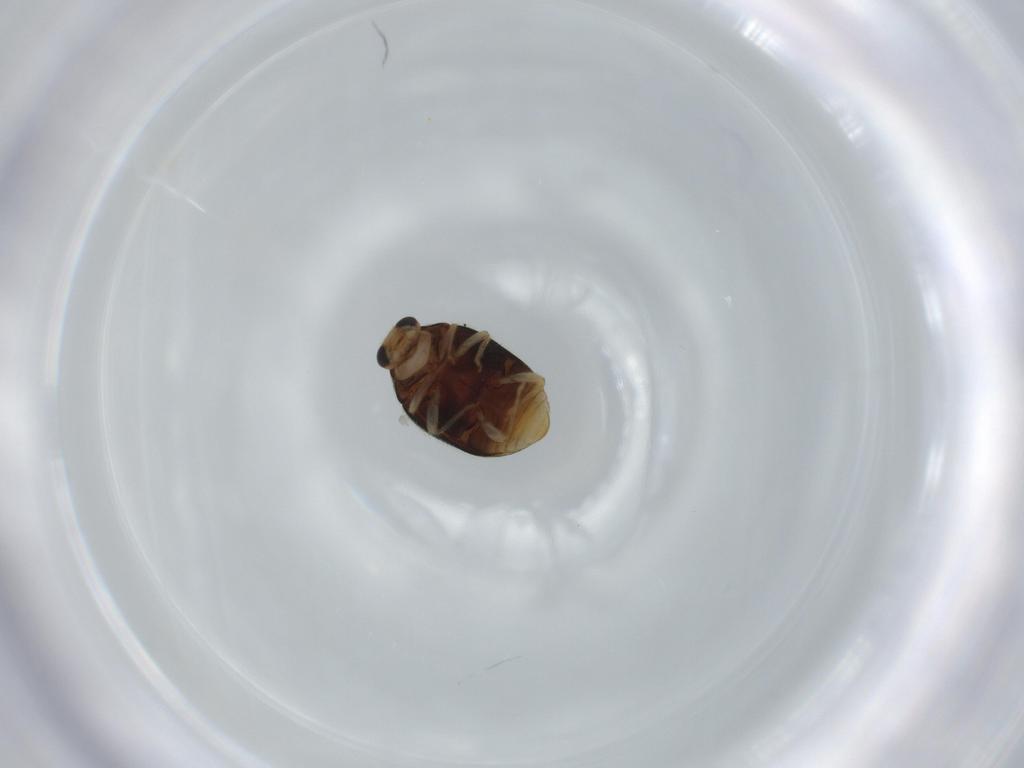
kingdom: Animalia
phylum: Arthropoda
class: Insecta
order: Coleoptera
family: Coccinellidae
